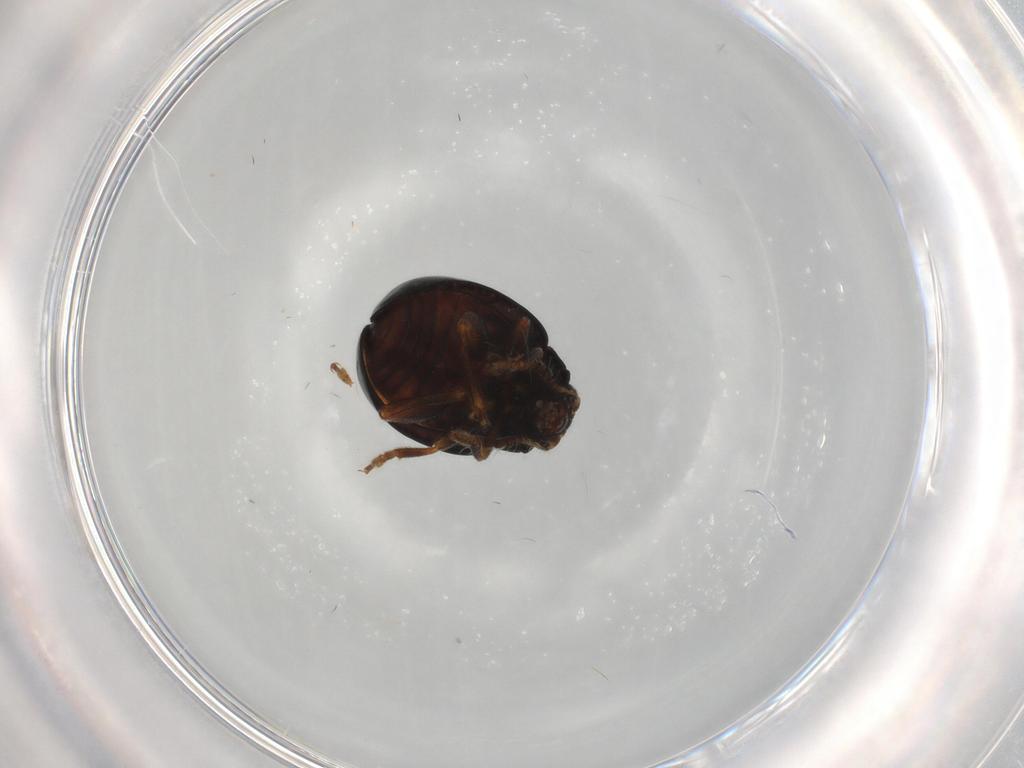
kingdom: Animalia
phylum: Arthropoda
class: Insecta
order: Coleoptera
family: Chrysomelidae
